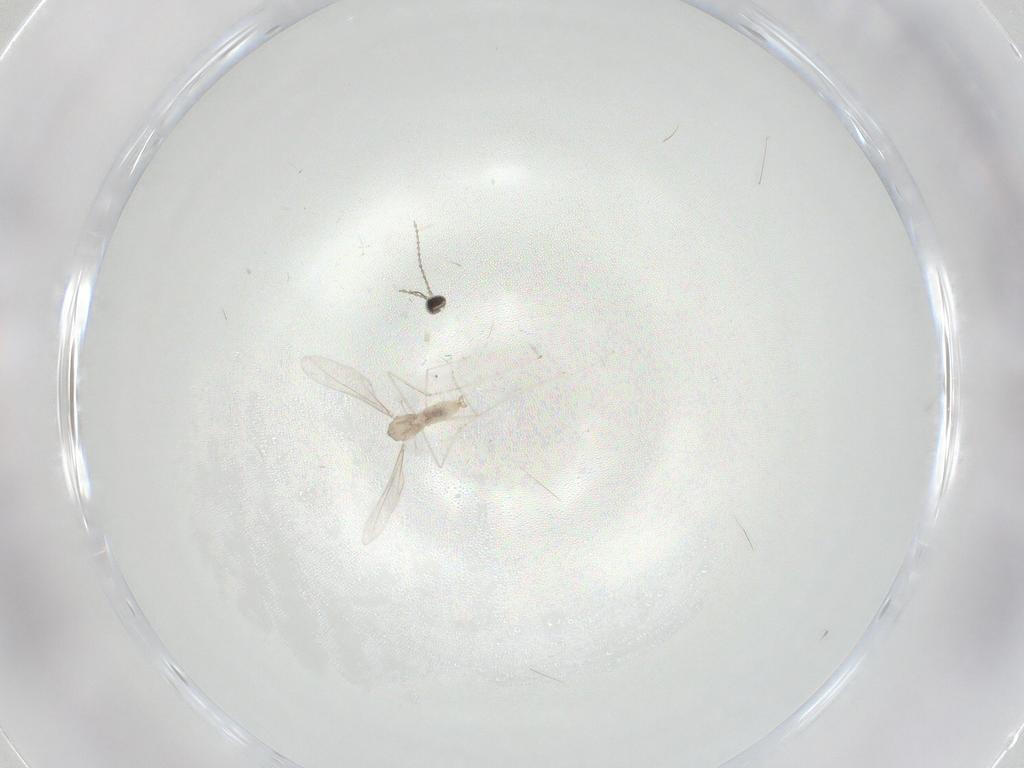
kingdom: Animalia
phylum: Arthropoda
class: Insecta
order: Diptera
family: Cecidomyiidae
